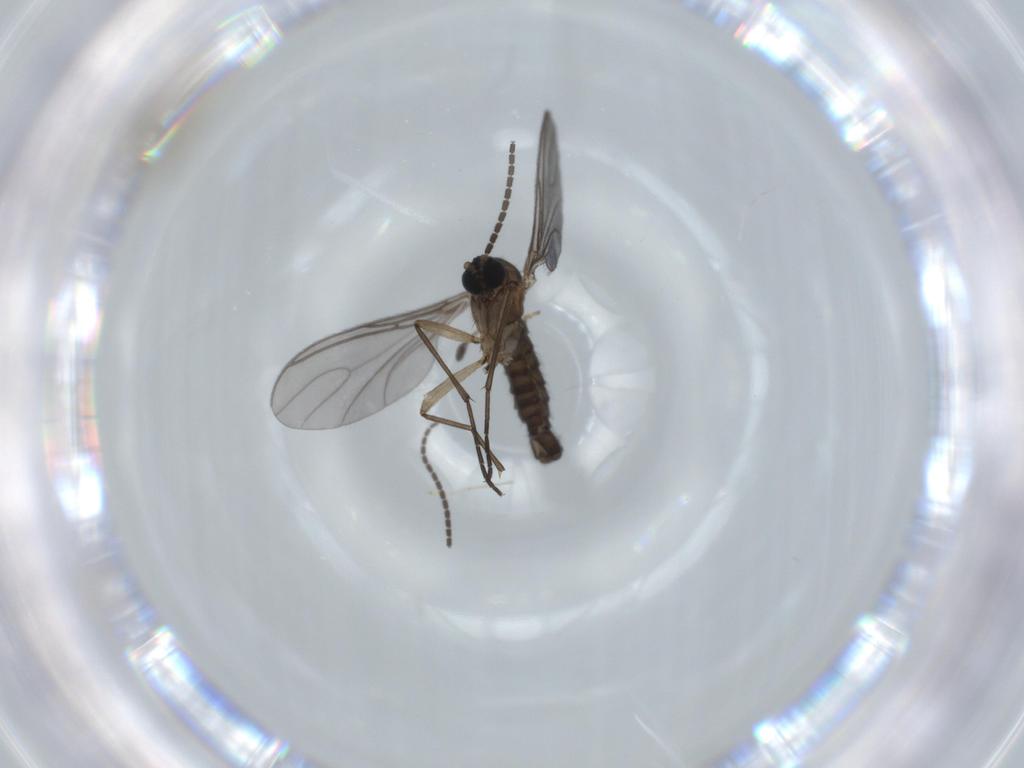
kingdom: Animalia
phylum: Arthropoda
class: Insecta
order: Diptera
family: Cecidomyiidae
